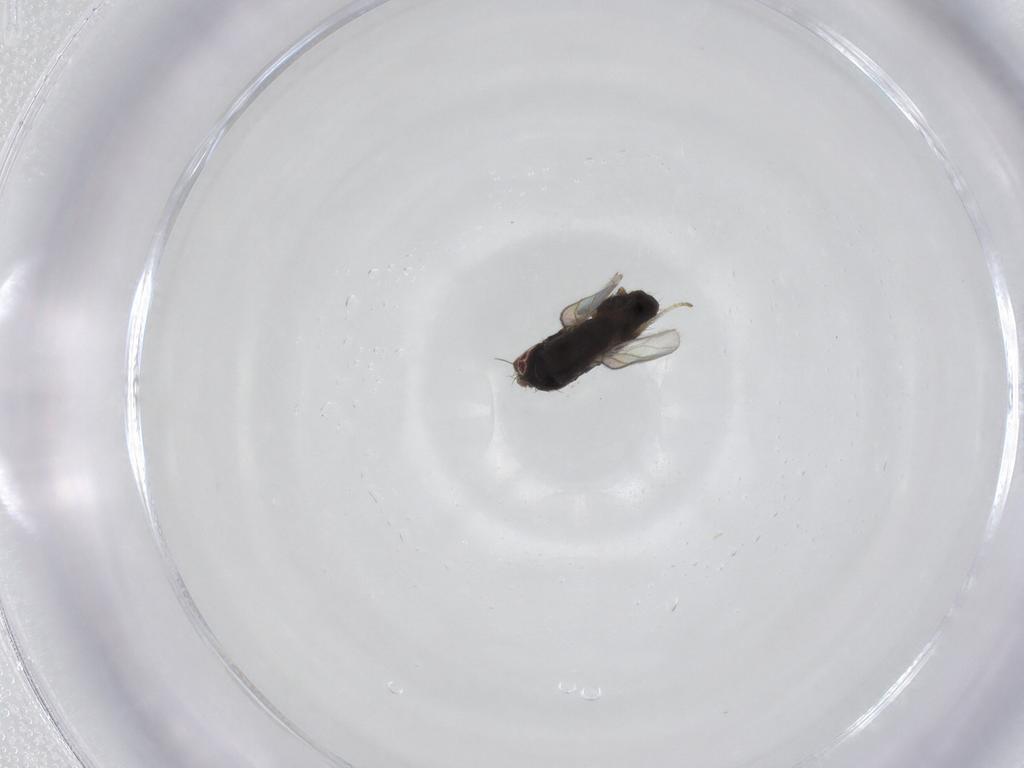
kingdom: Animalia
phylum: Arthropoda
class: Insecta
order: Diptera
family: Milichiidae
